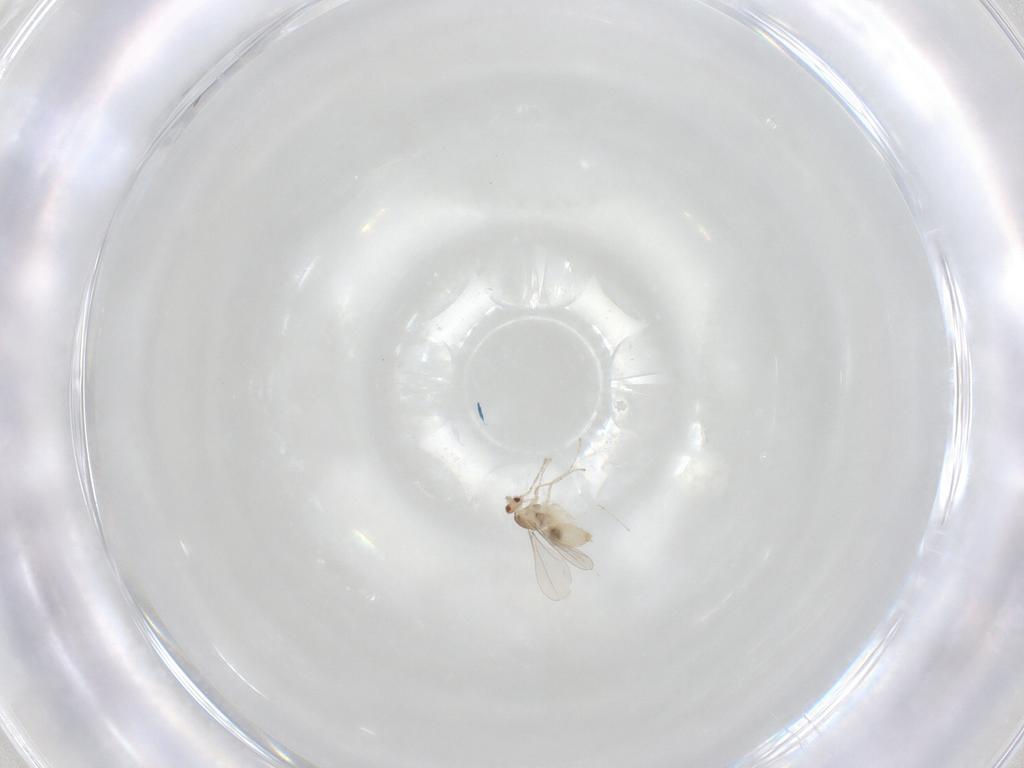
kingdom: Animalia
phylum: Arthropoda
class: Insecta
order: Diptera
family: Cecidomyiidae
